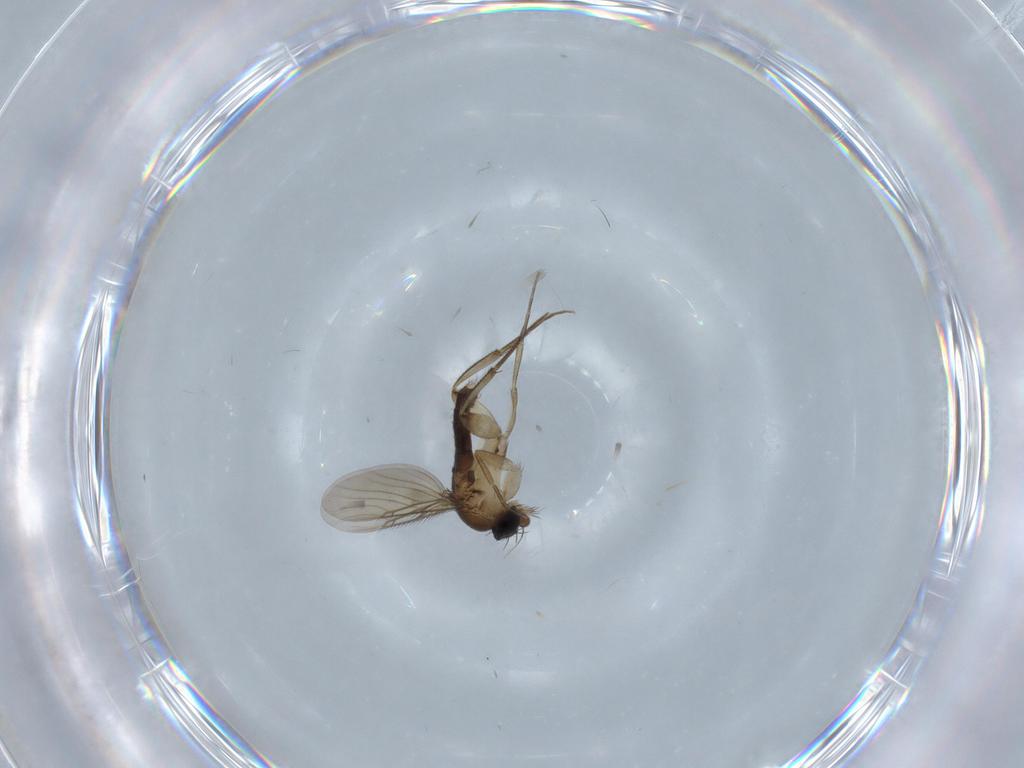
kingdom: Animalia
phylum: Arthropoda
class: Insecta
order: Diptera
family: Phoridae
